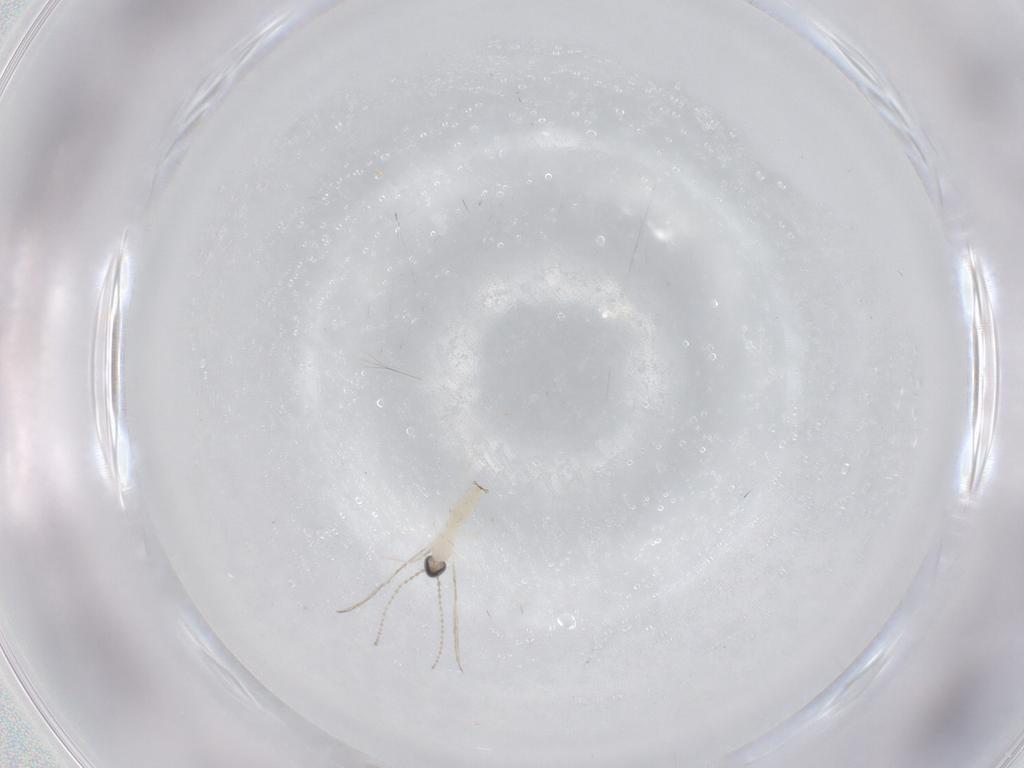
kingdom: Animalia
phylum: Arthropoda
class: Insecta
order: Diptera
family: Cecidomyiidae
